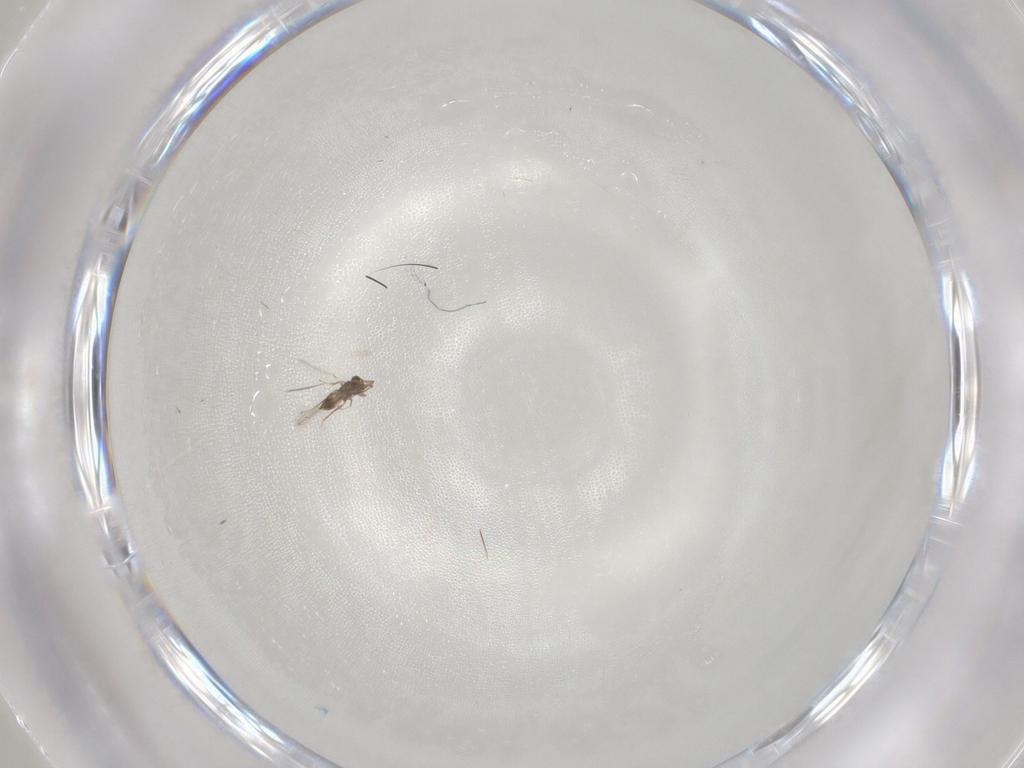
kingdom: Animalia
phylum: Arthropoda
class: Insecta
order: Hymenoptera
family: Mymaridae
